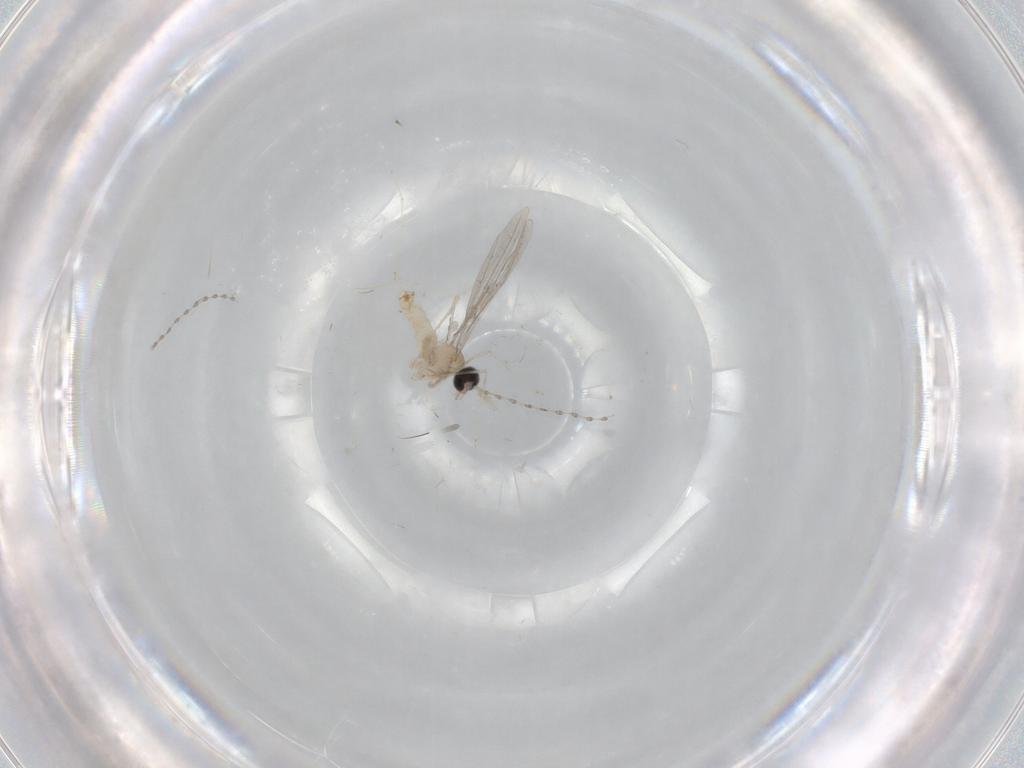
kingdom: Animalia
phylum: Arthropoda
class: Insecta
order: Diptera
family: Cecidomyiidae
